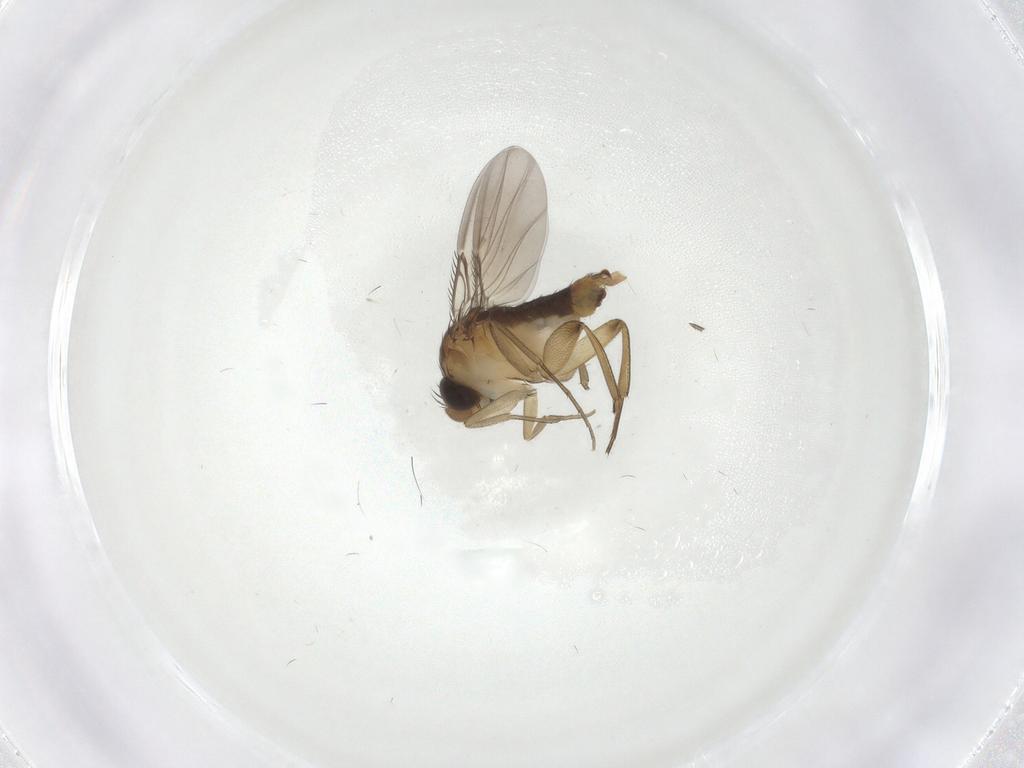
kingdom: Animalia
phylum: Arthropoda
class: Insecta
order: Diptera
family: Phoridae
